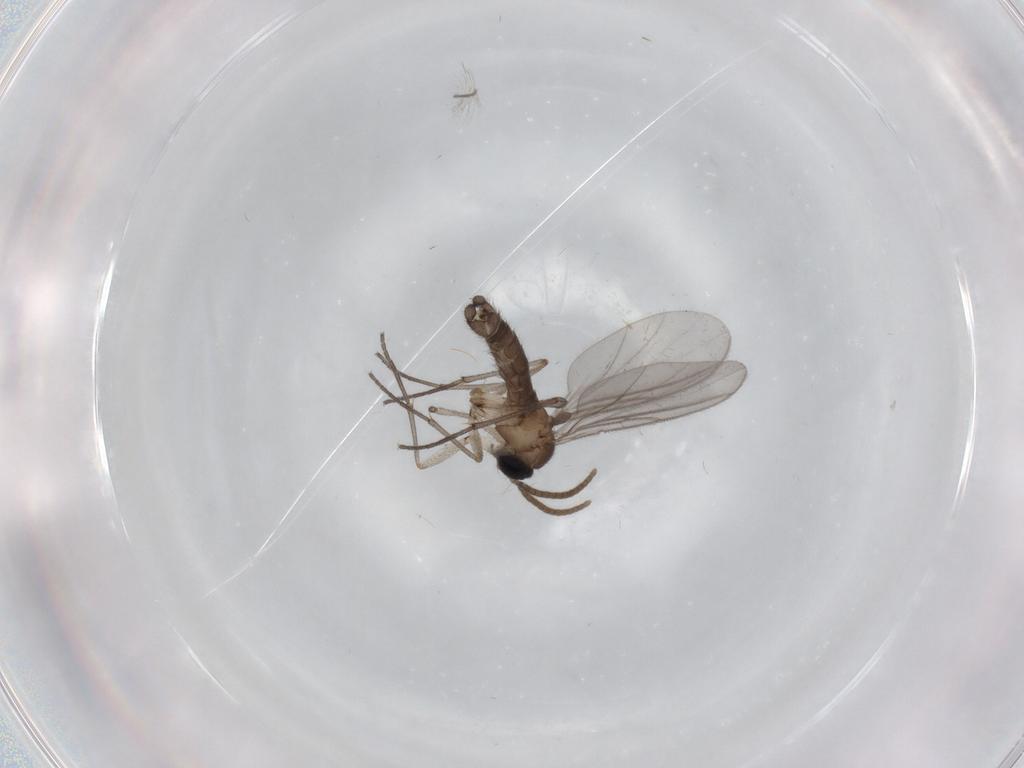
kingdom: Animalia
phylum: Arthropoda
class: Insecta
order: Diptera
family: Chironomidae
